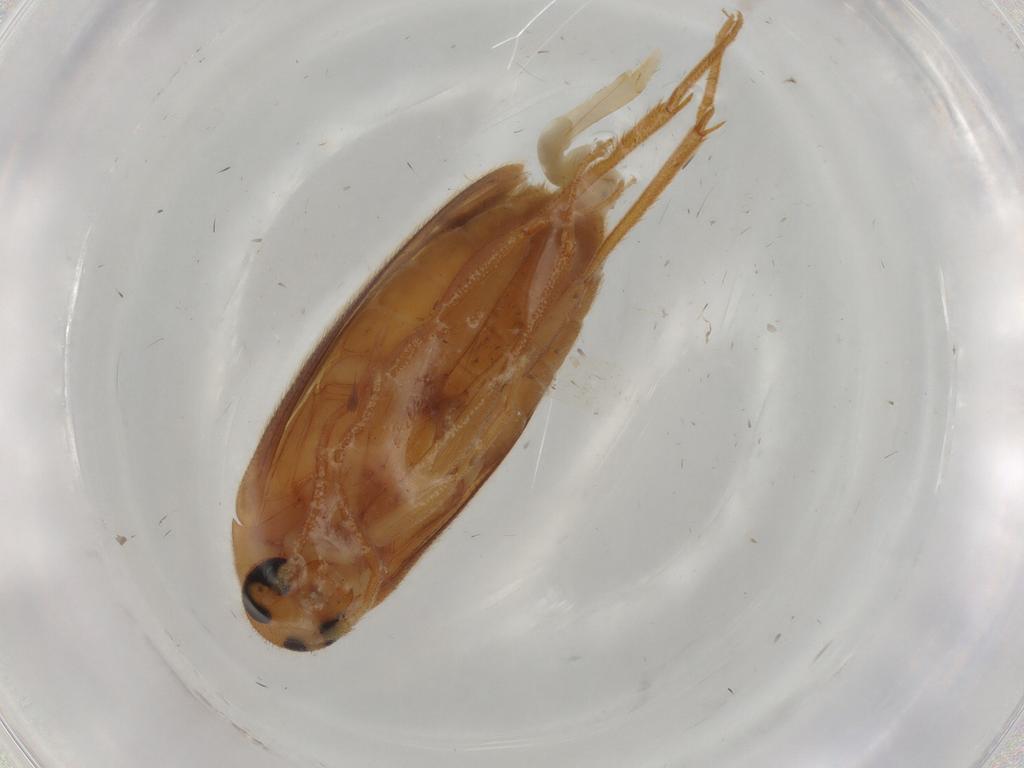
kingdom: Animalia
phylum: Arthropoda
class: Insecta
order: Coleoptera
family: Scraptiidae
